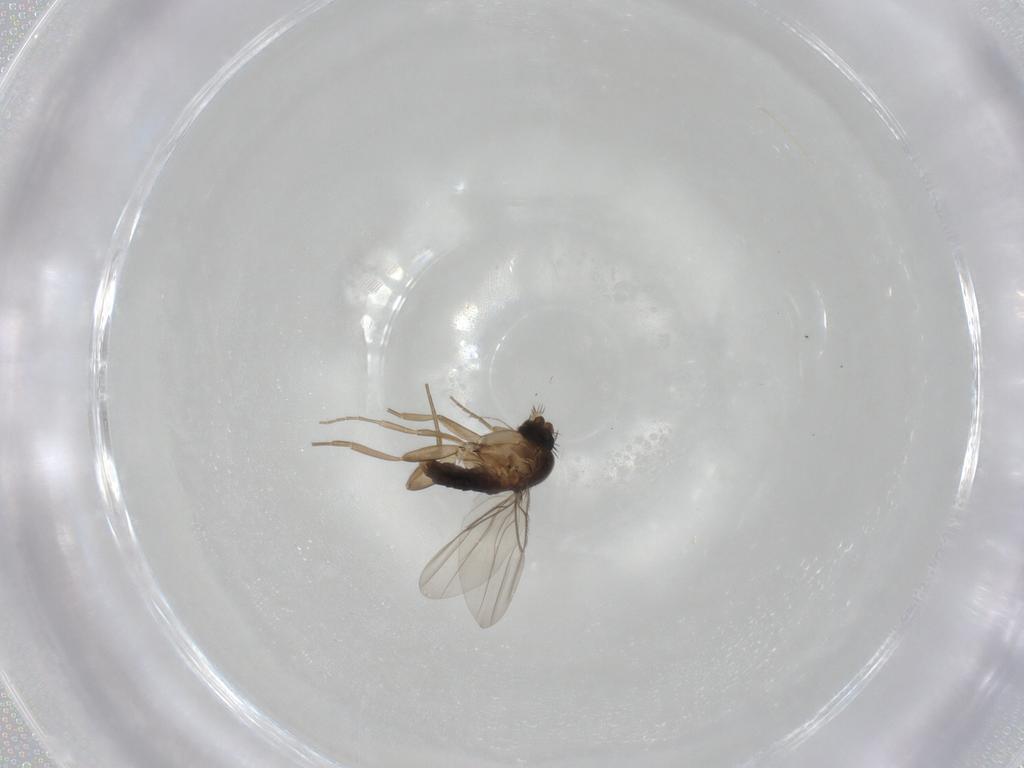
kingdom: Animalia
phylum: Arthropoda
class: Insecta
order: Diptera
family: Phoridae
